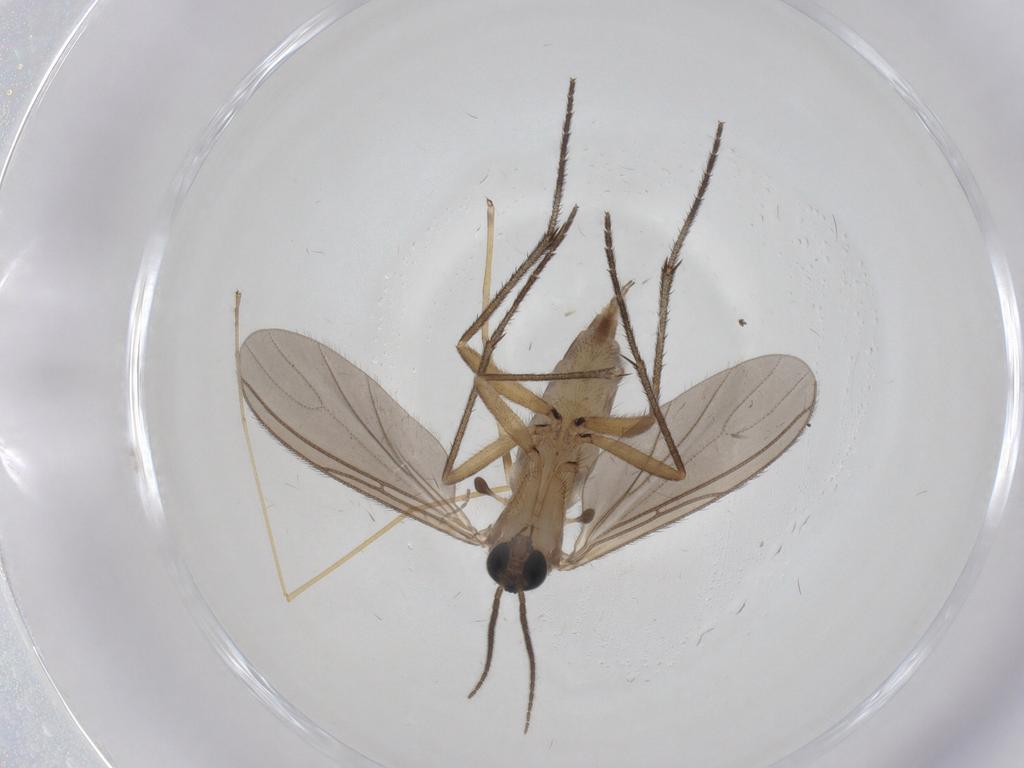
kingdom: Animalia
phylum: Arthropoda
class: Insecta
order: Diptera
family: Sciaridae
